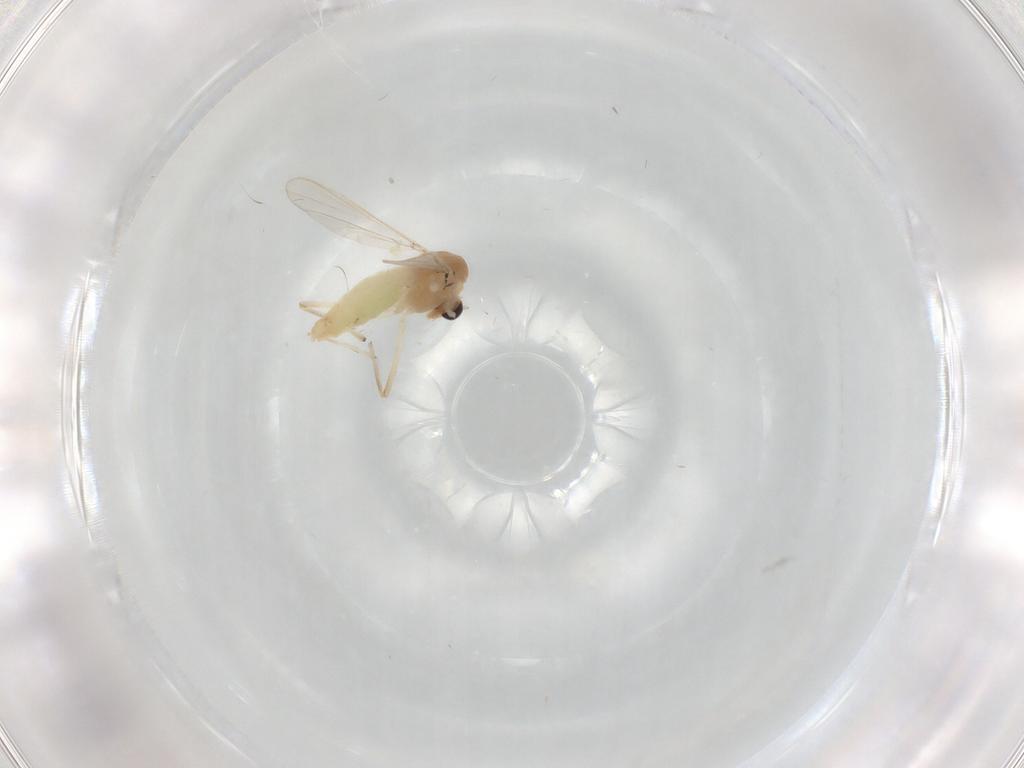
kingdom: Animalia
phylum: Arthropoda
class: Insecta
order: Diptera
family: Chironomidae
